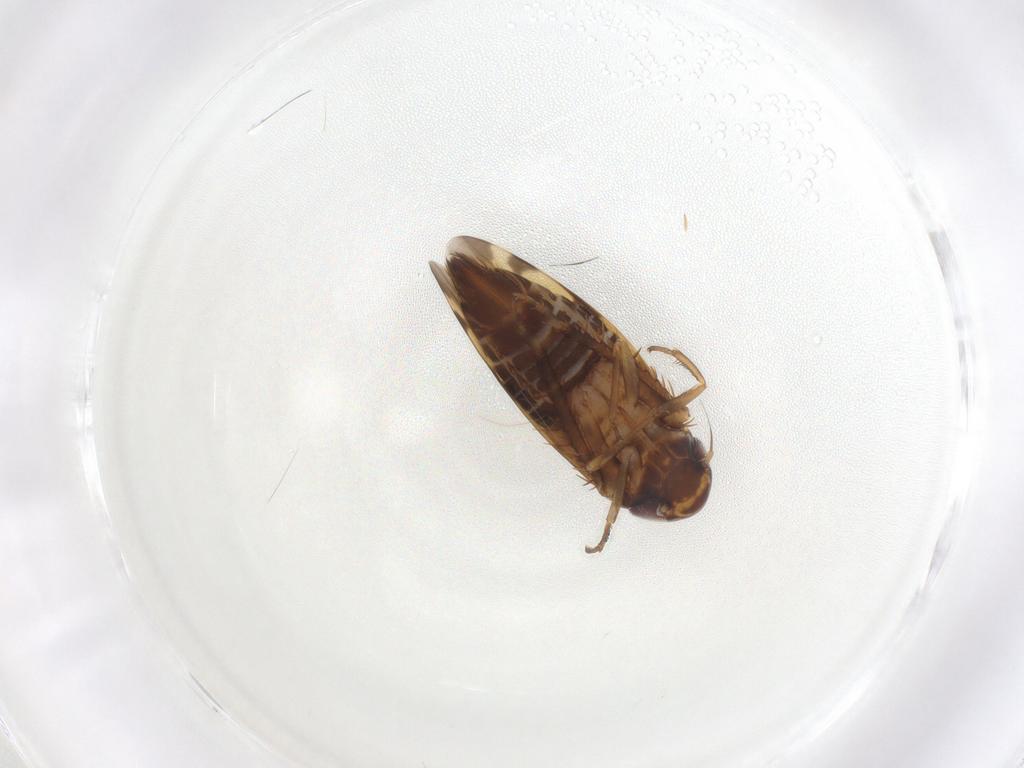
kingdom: Animalia
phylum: Arthropoda
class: Insecta
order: Hemiptera
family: Cicadellidae
